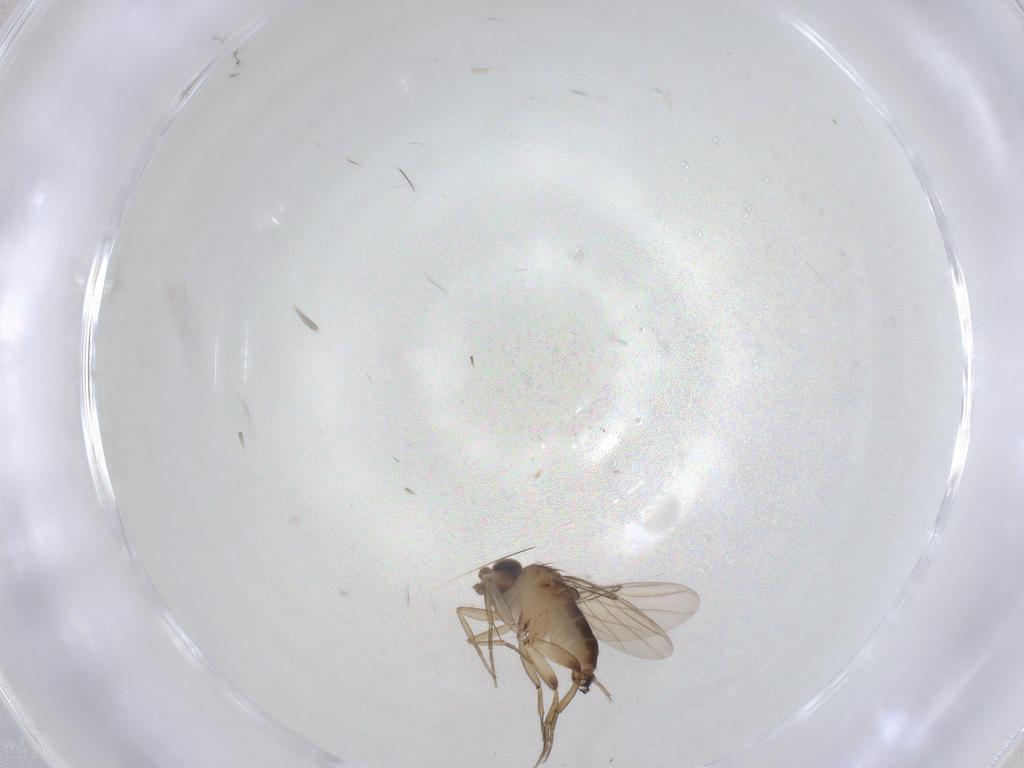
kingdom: Animalia
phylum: Arthropoda
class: Insecta
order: Diptera
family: Phoridae
